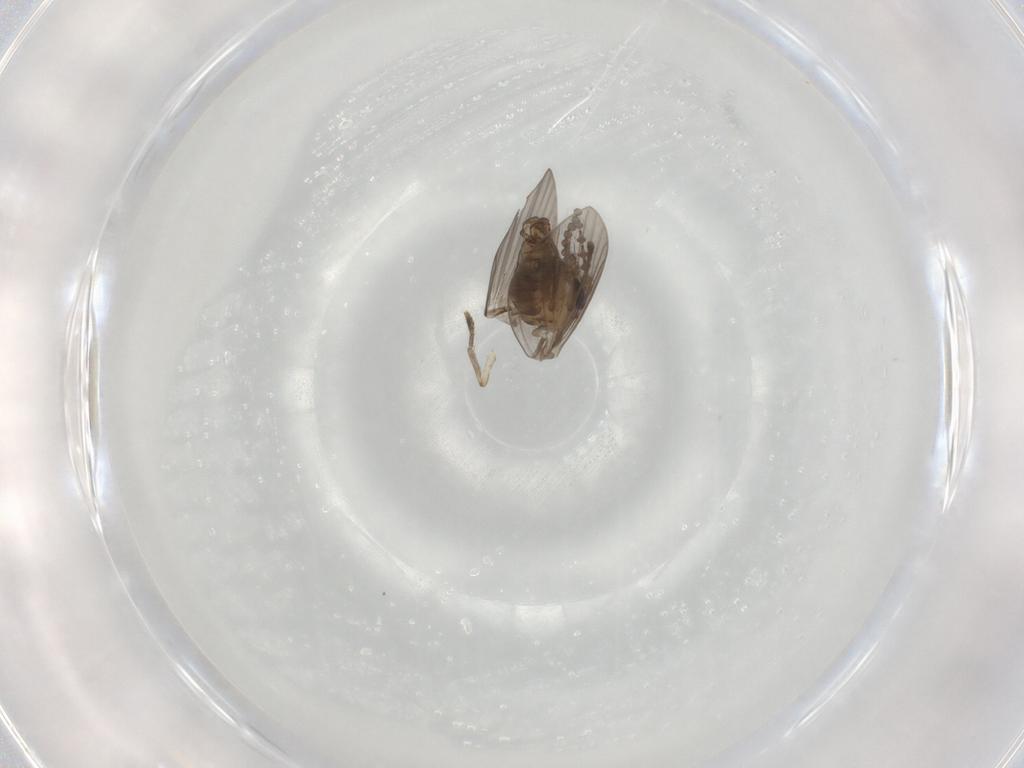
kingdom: Animalia
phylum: Arthropoda
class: Insecta
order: Diptera
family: Psychodidae
